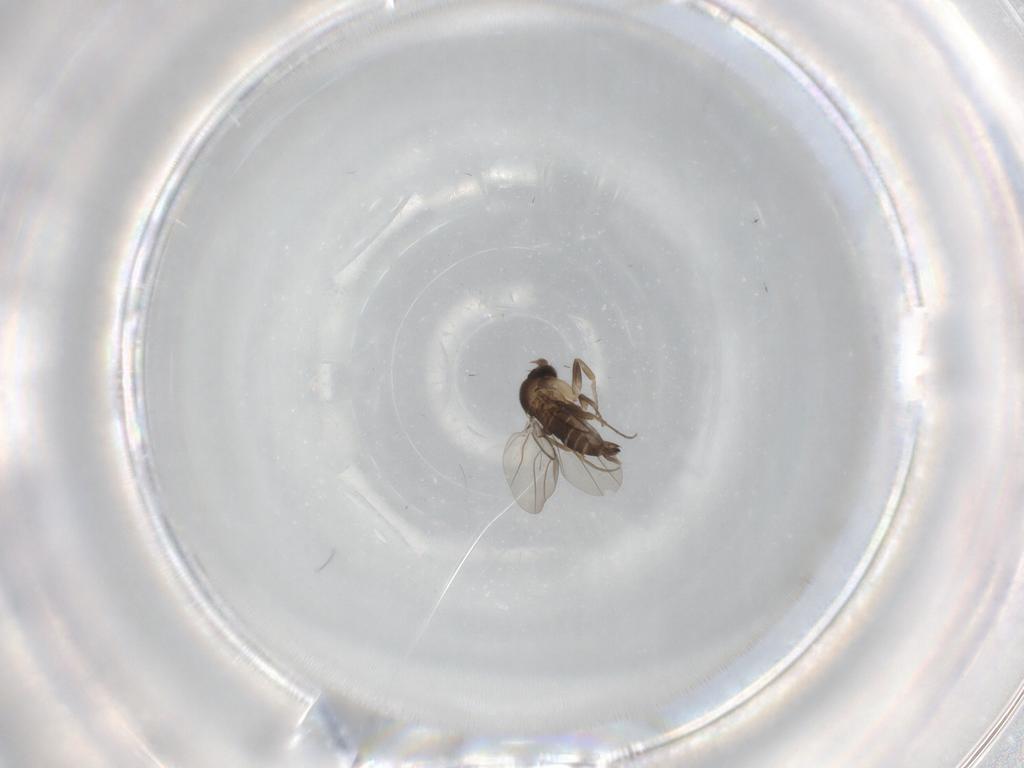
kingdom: Animalia
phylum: Arthropoda
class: Insecta
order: Diptera
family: Phoridae
